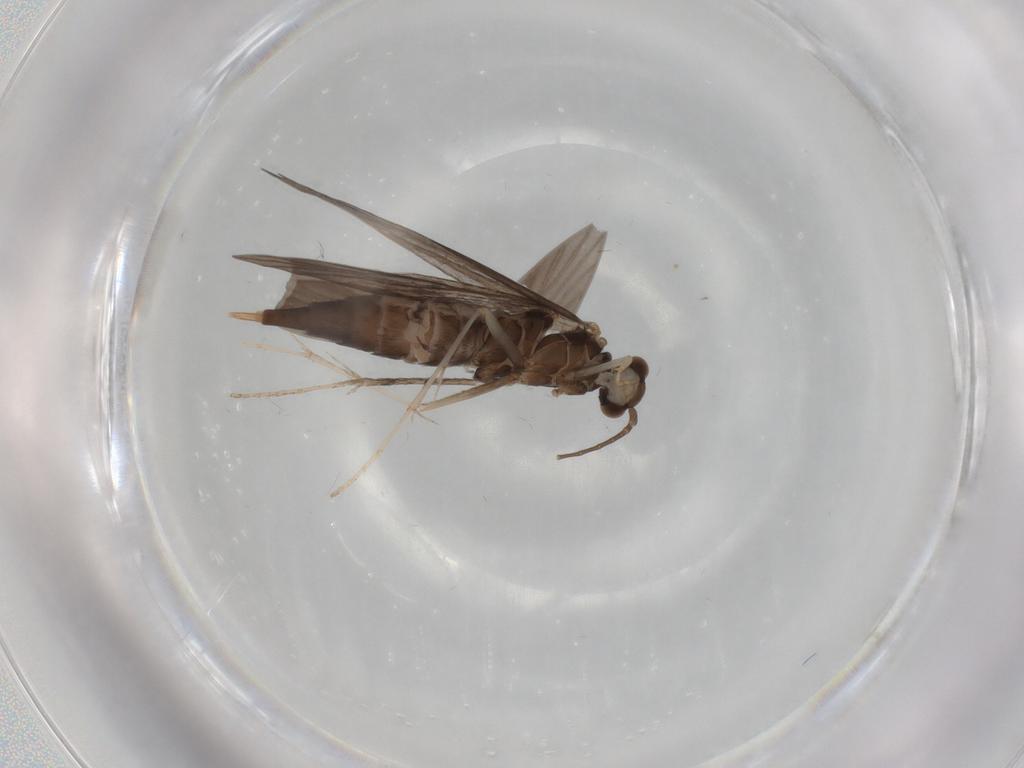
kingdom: Animalia
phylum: Arthropoda
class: Insecta
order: Trichoptera
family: Xiphocentronidae
